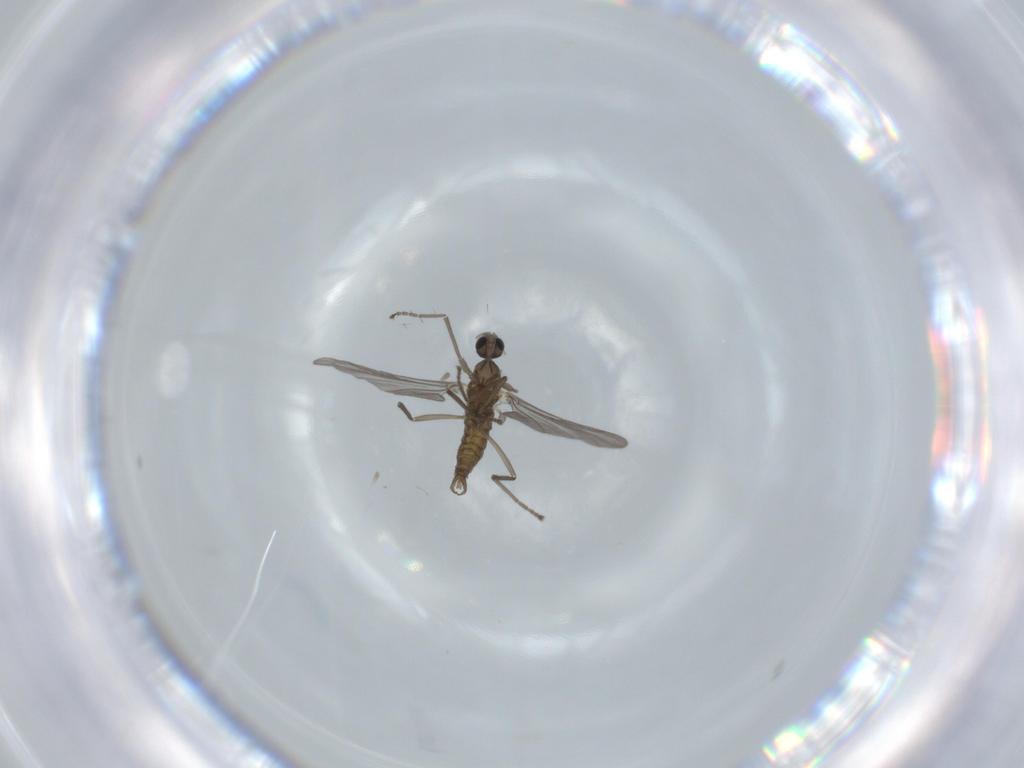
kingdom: Animalia
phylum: Arthropoda
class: Insecta
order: Diptera
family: Cecidomyiidae
